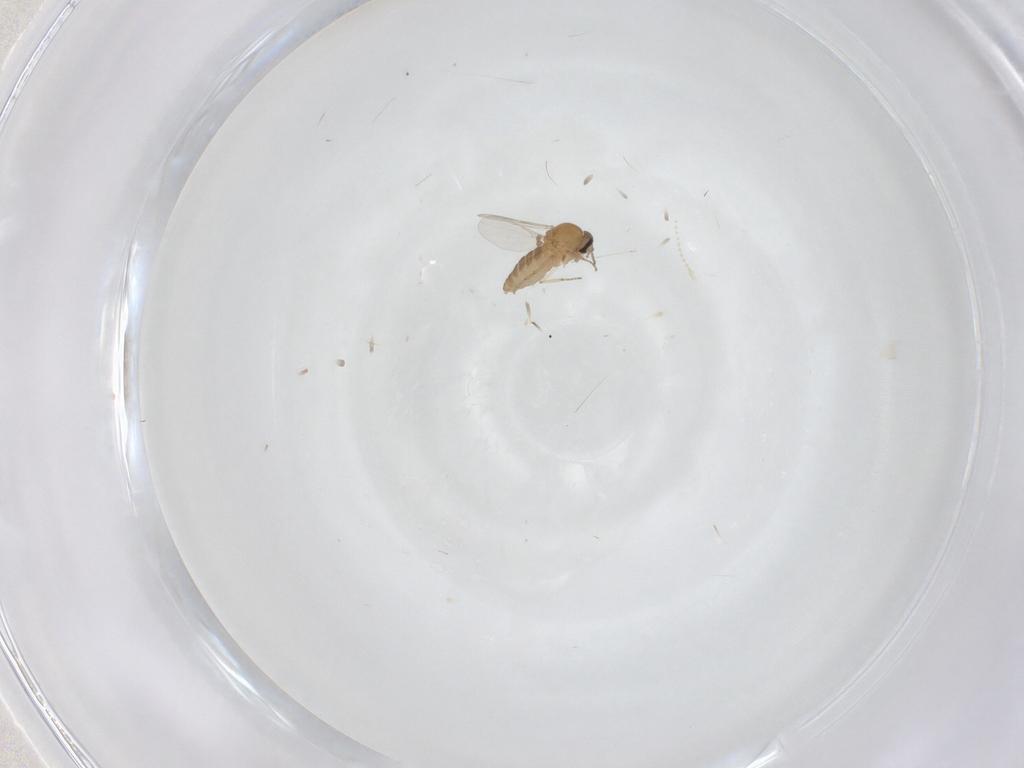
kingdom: Animalia
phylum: Arthropoda
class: Insecta
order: Diptera
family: Ceratopogonidae
